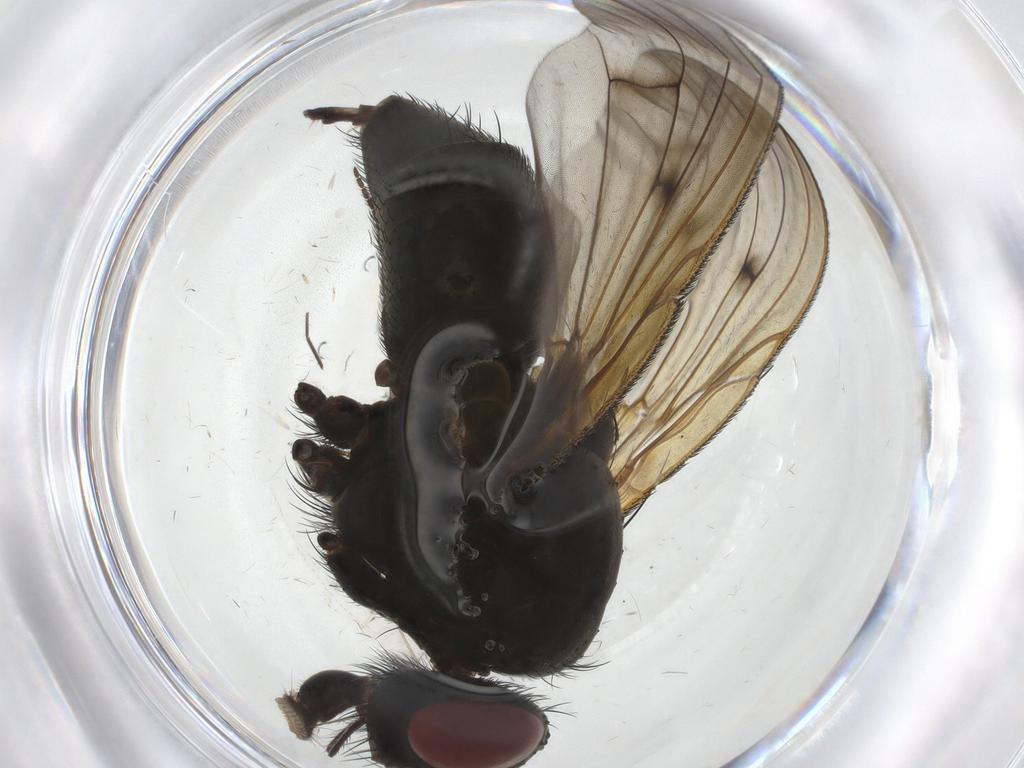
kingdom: Animalia
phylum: Arthropoda
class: Insecta
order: Diptera
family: Muscidae
